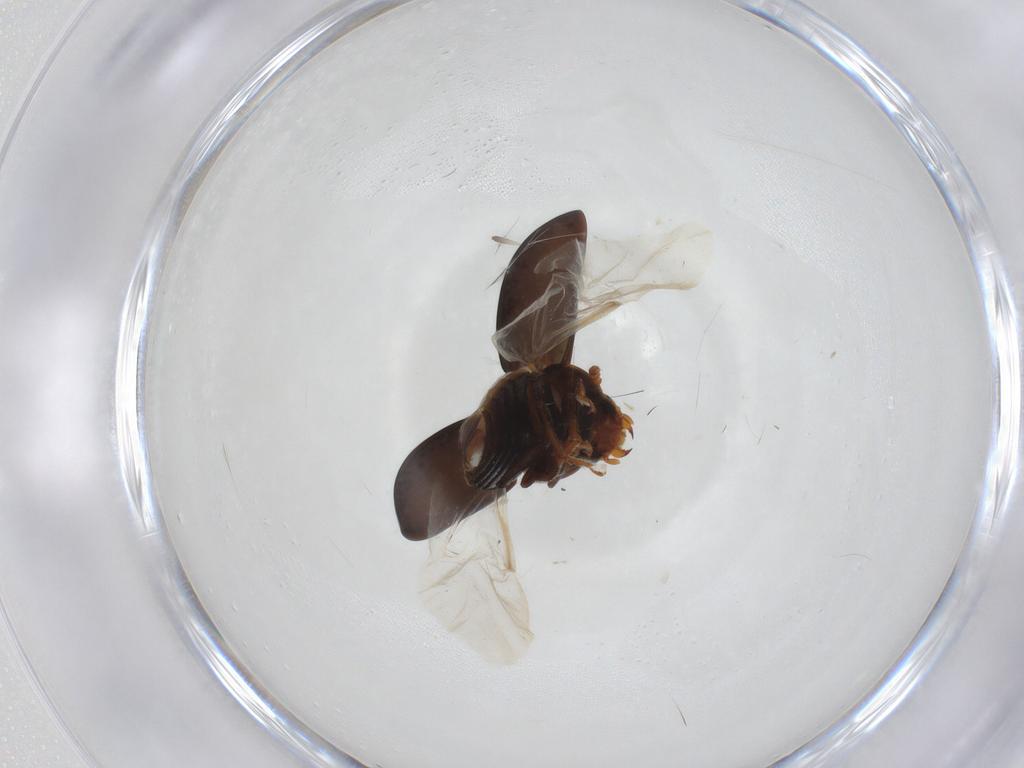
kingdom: Animalia
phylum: Arthropoda
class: Insecta
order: Coleoptera
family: Phalacridae
